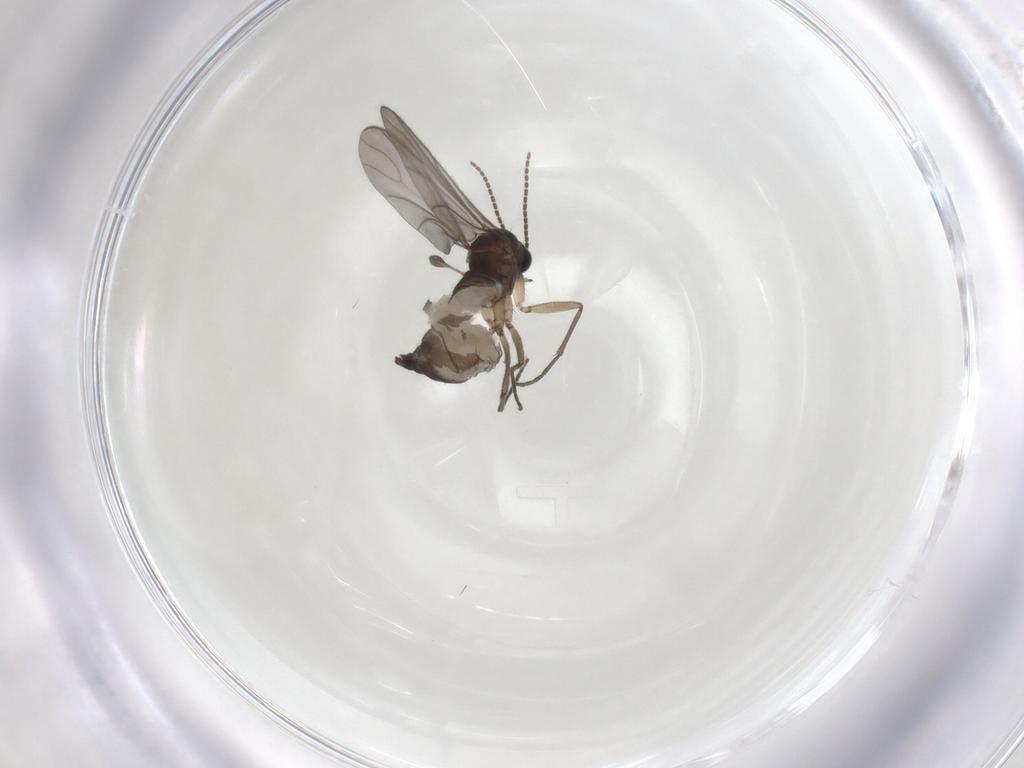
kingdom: Animalia
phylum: Arthropoda
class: Insecta
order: Diptera
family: Sciaridae
